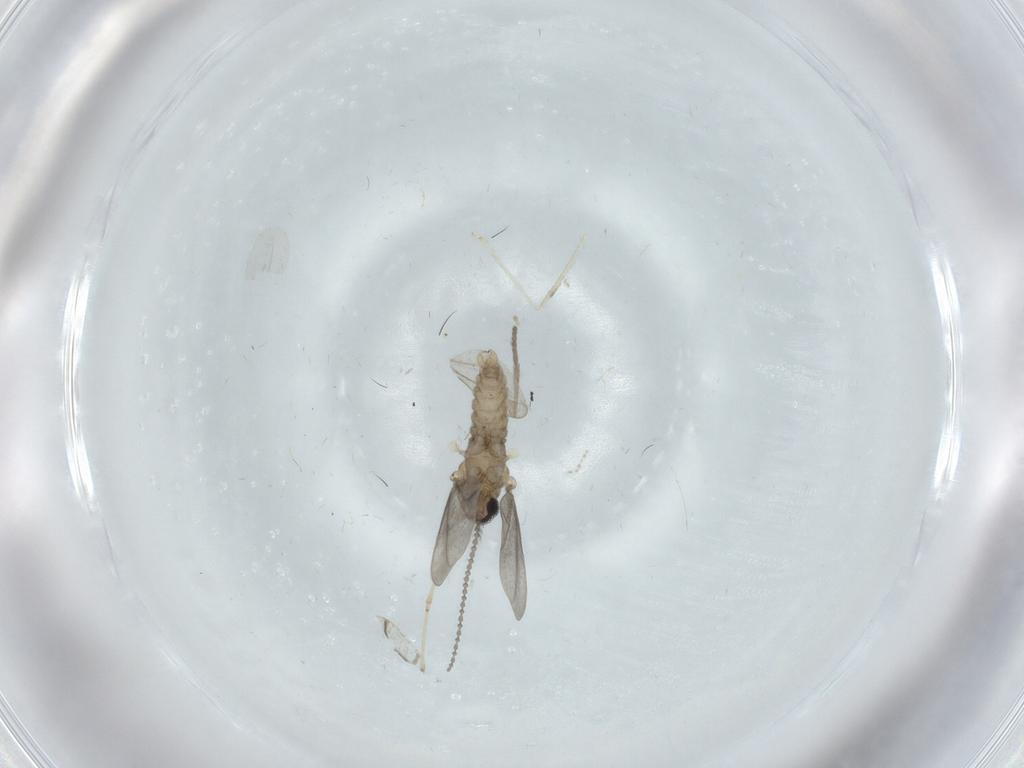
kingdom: Animalia
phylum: Arthropoda
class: Insecta
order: Diptera
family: Cecidomyiidae
